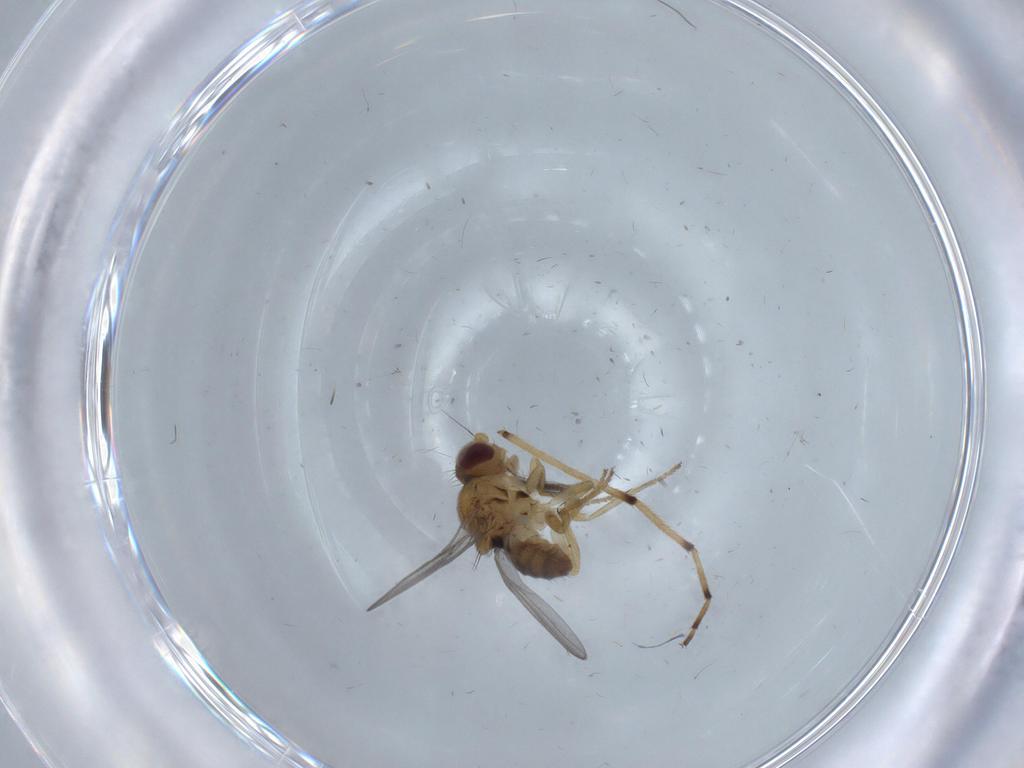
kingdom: Animalia
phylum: Arthropoda
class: Insecta
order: Diptera
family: Chloropidae
